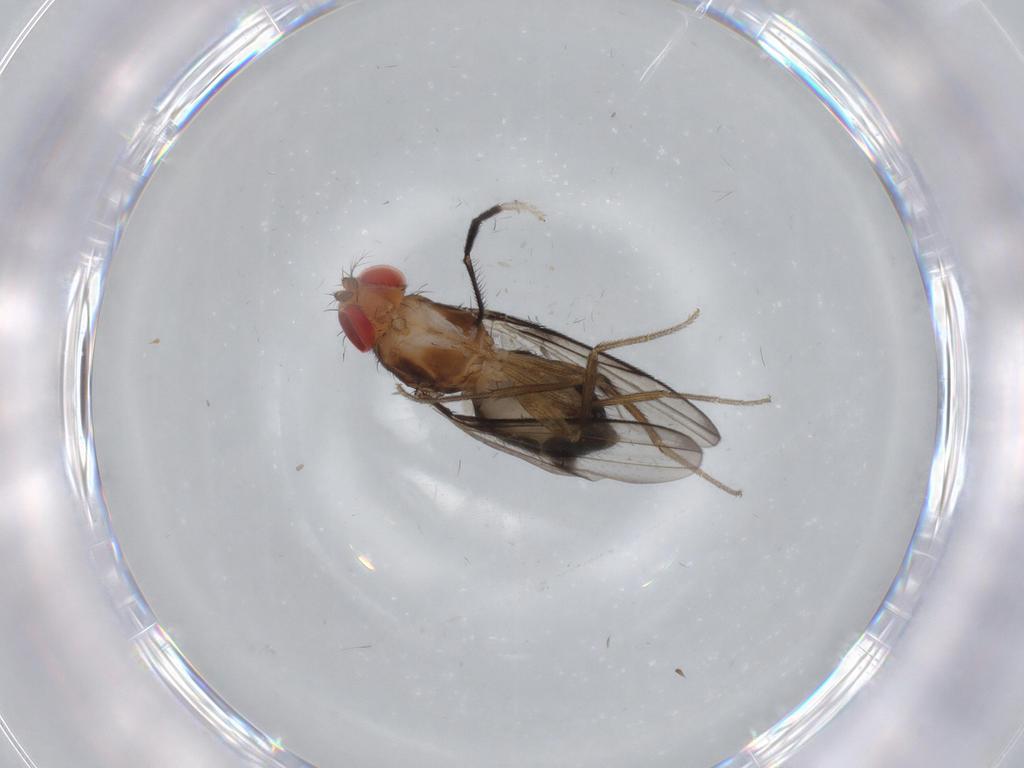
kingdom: Animalia
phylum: Arthropoda
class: Insecta
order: Diptera
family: Drosophilidae
